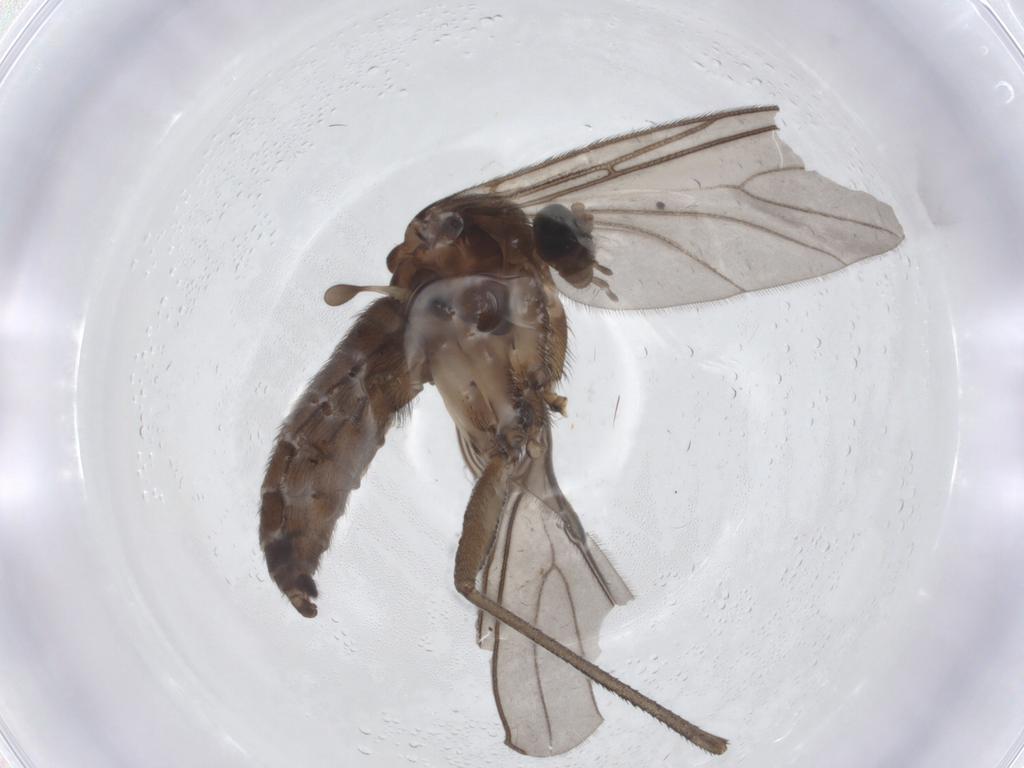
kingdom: Animalia
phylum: Arthropoda
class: Insecta
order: Diptera
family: Sciaridae
